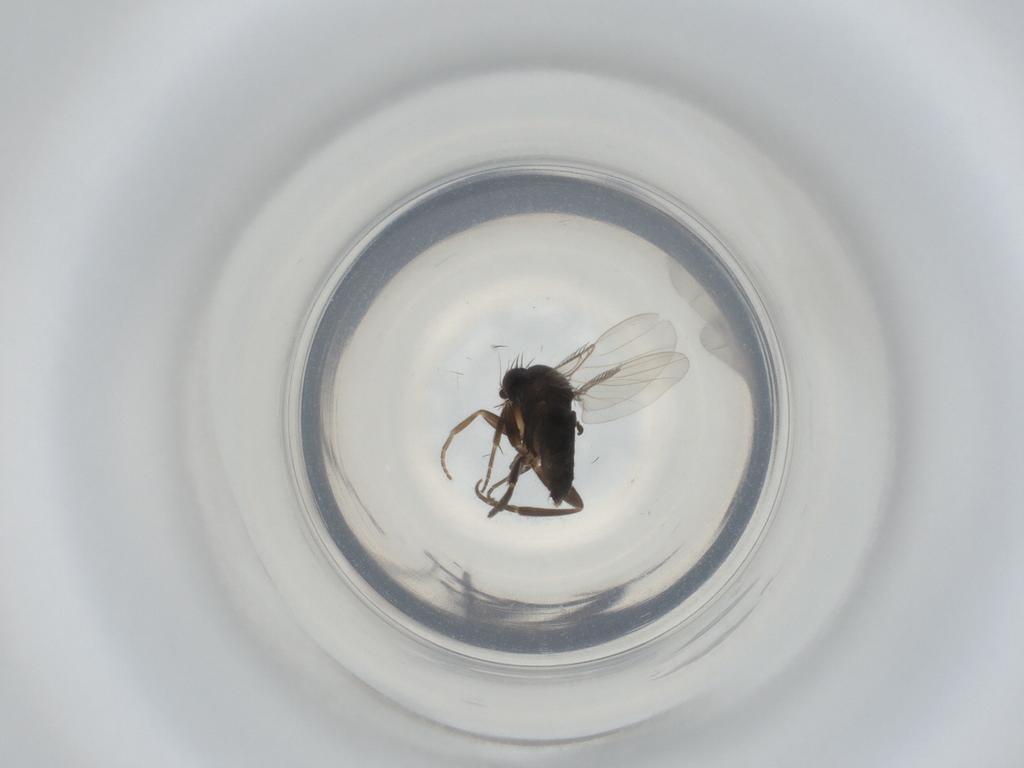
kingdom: Animalia
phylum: Arthropoda
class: Insecta
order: Diptera
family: Phoridae
